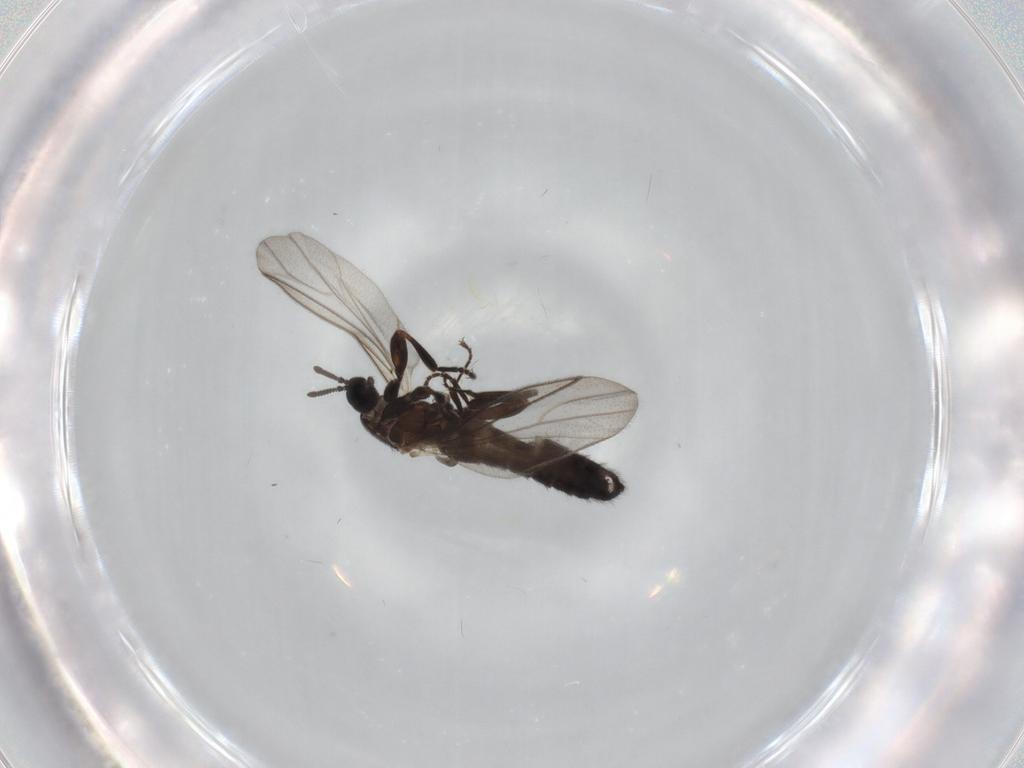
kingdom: Animalia
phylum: Arthropoda
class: Insecta
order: Diptera
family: Scatopsidae
